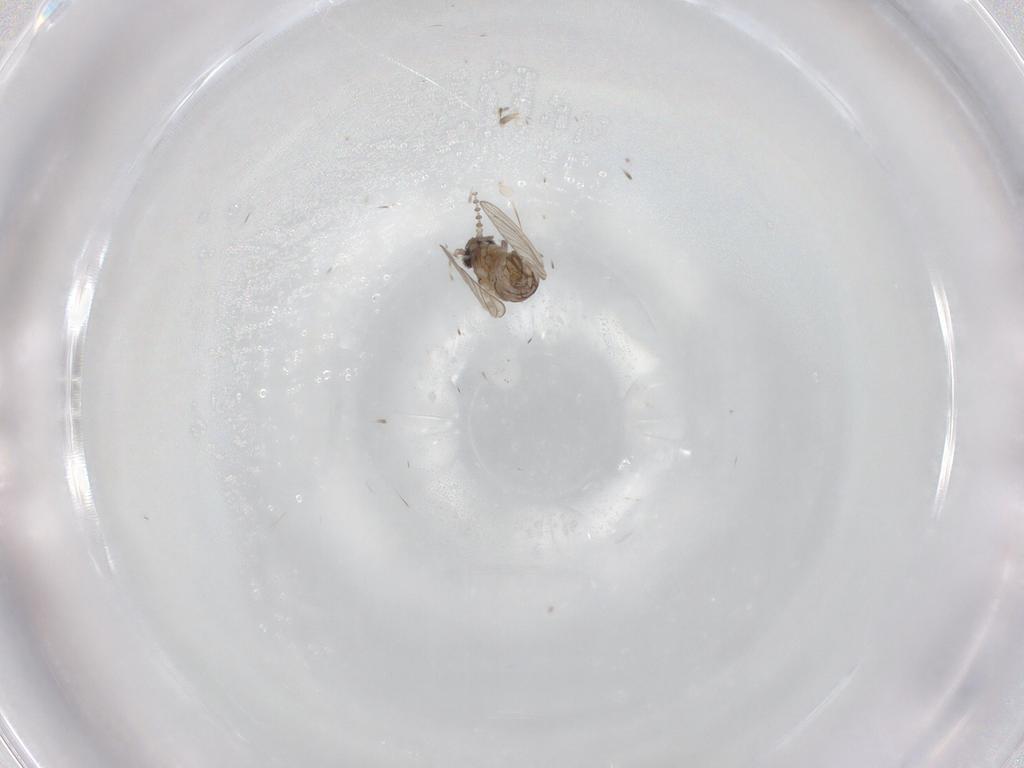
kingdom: Animalia
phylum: Arthropoda
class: Insecta
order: Diptera
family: Psychodidae
